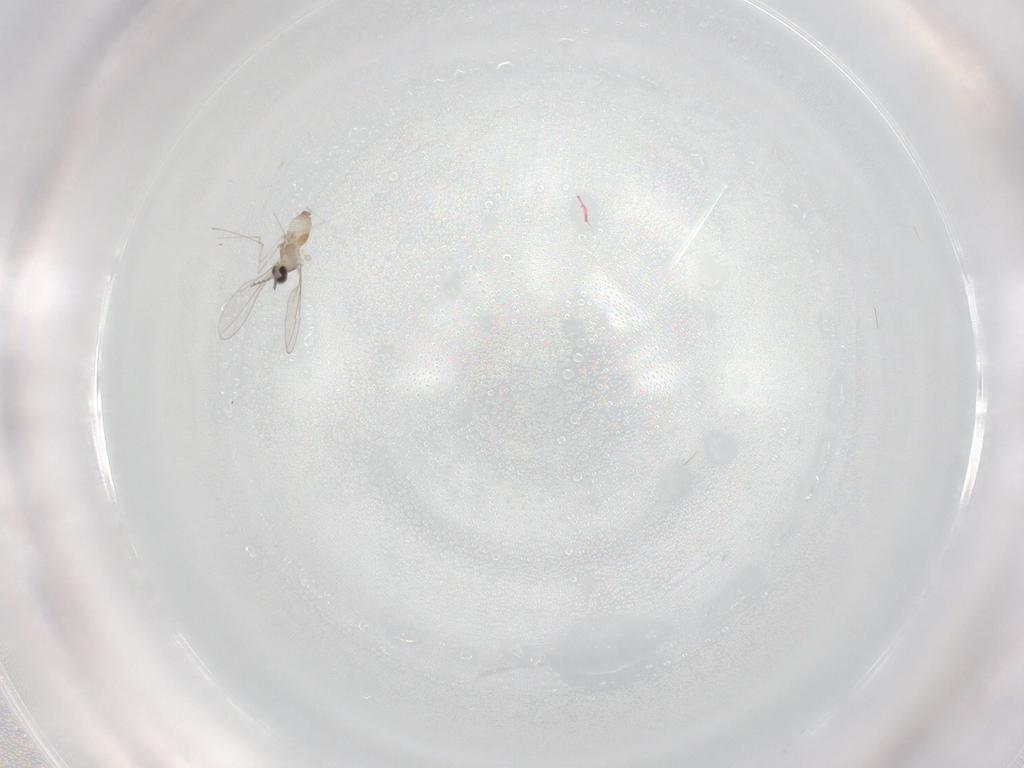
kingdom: Animalia
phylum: Arthropoda
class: Insecta
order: Diptera
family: Cecidomyiidae
